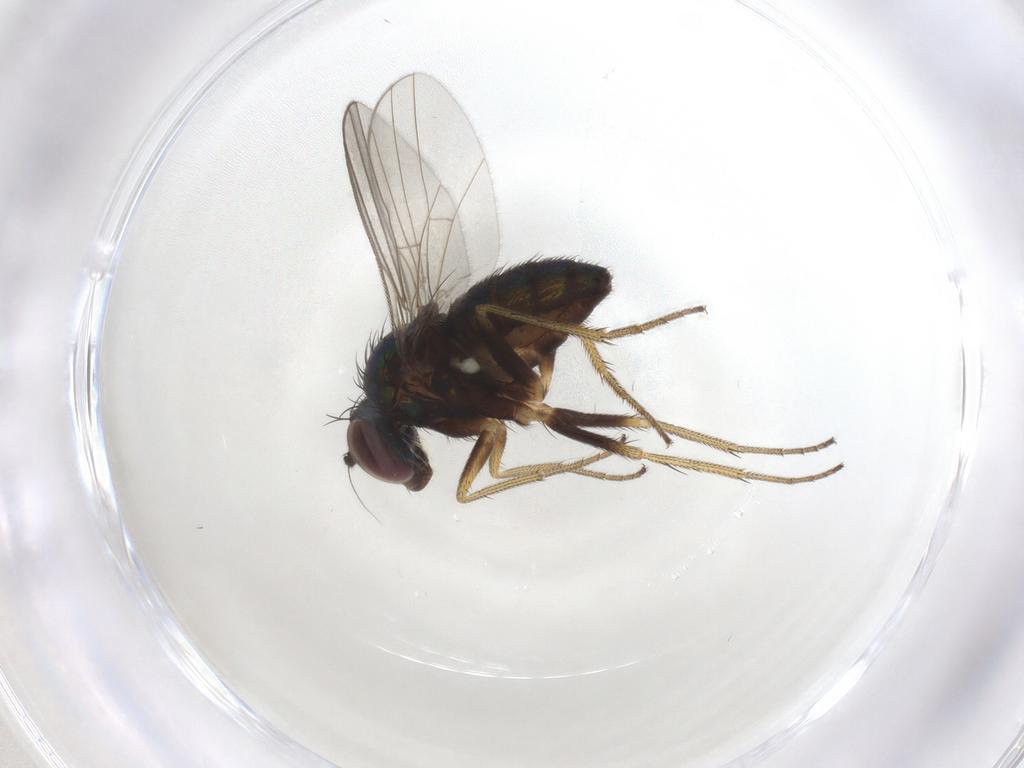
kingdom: Animalia
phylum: Arthropoda
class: Insecta
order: Diptera
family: Dolichopodidae
